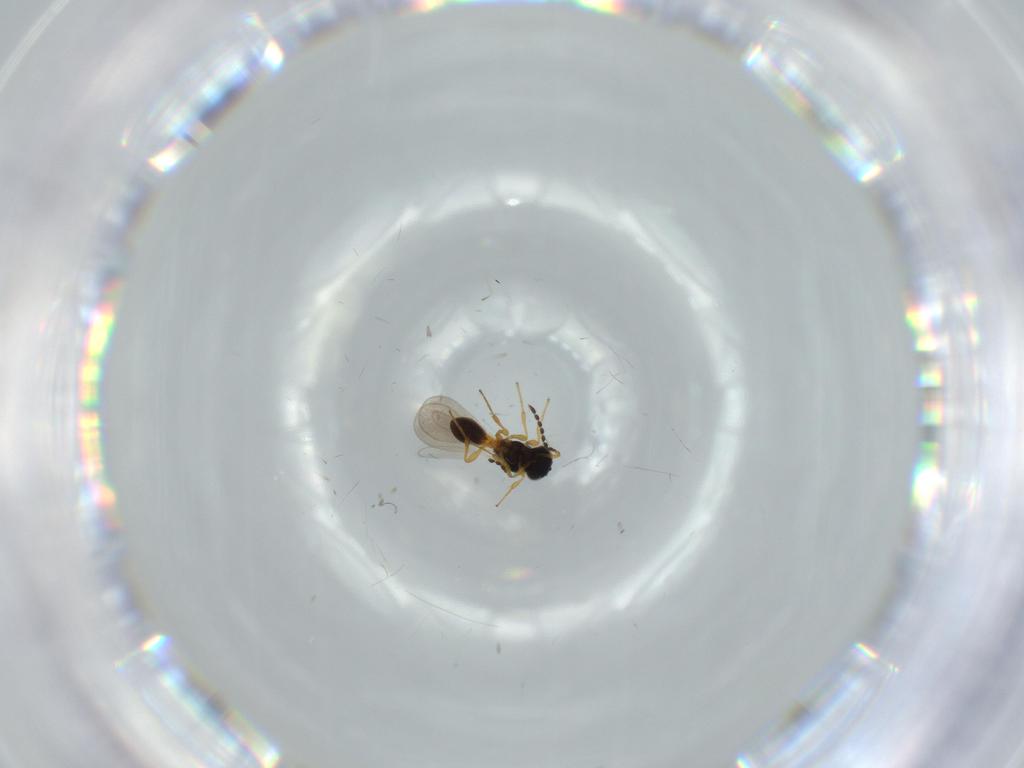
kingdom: Animalia
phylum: Arthropoda
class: Insecta
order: Hymenoptera
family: Platygastridae
